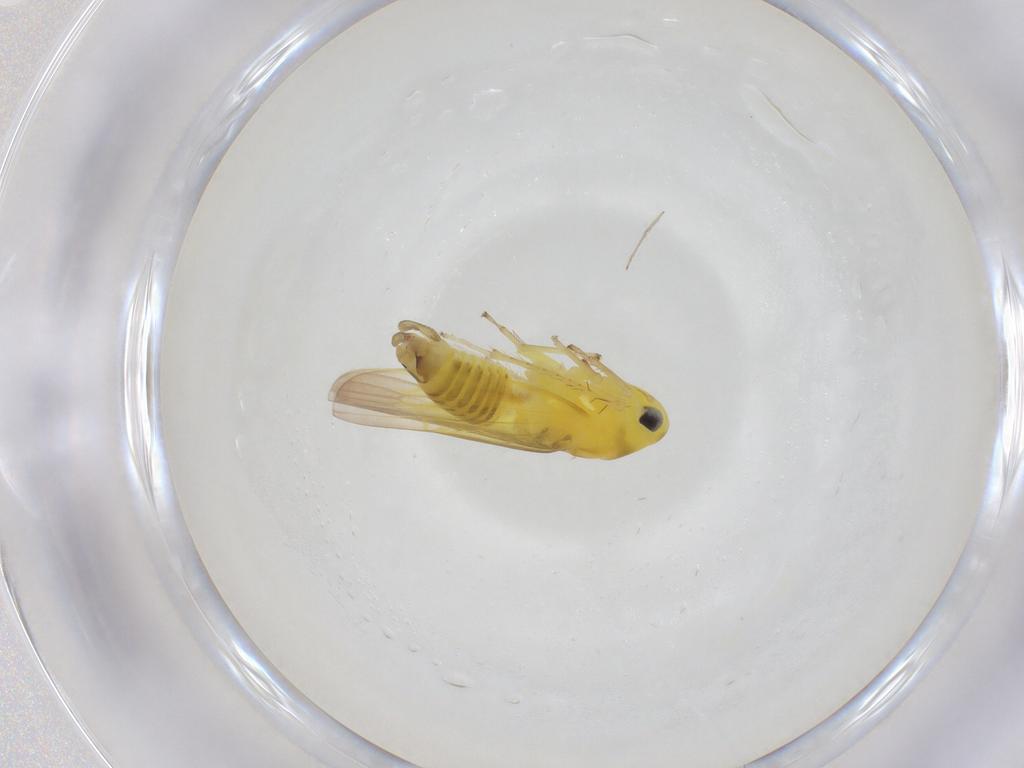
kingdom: Animalia
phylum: Arthropoda
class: Insecta
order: Hemiptera
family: Cicadellidae
